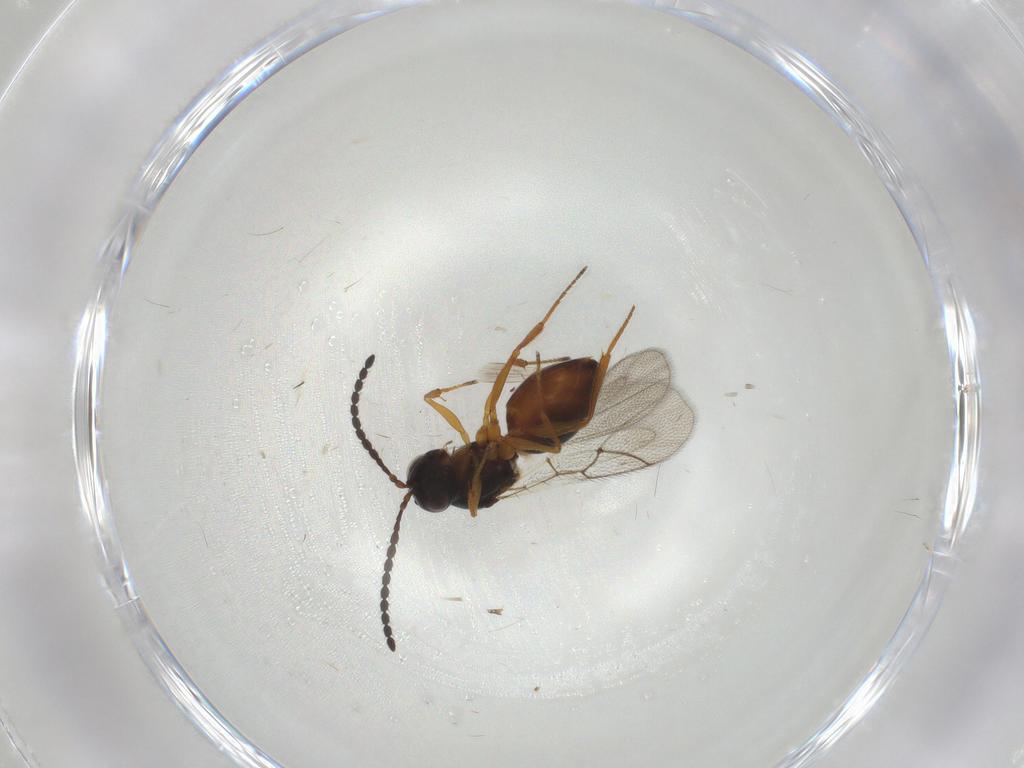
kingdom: Animalia
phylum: Arthropoda
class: Insecta
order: Hymenoptera
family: Figitidae
